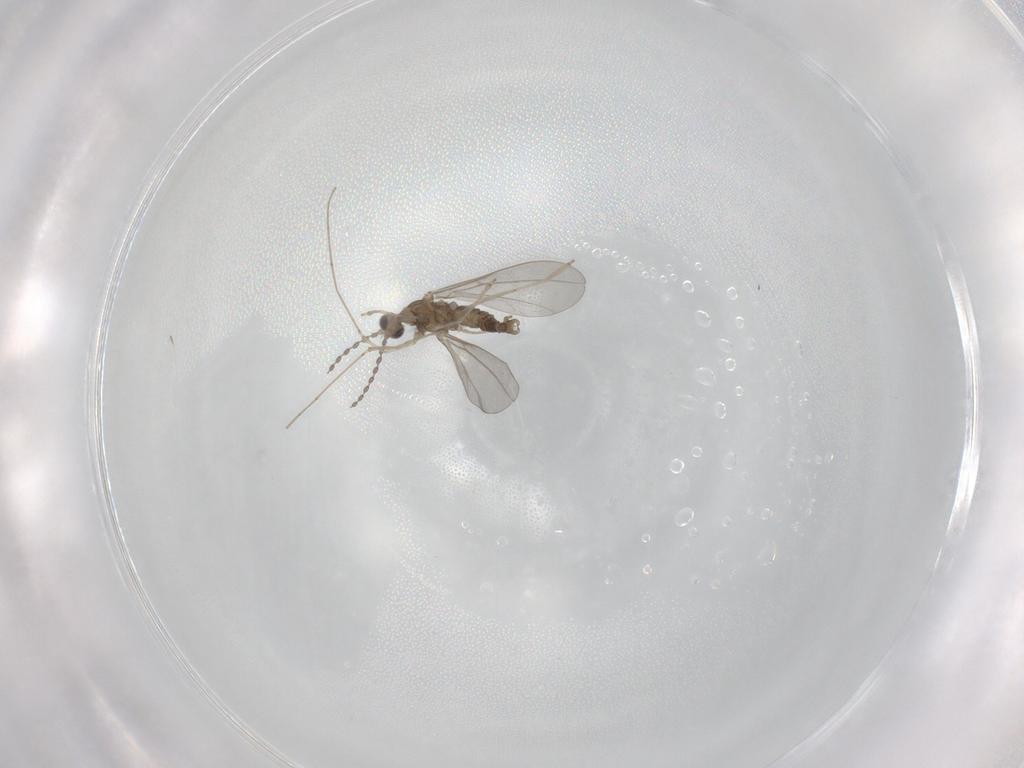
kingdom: Animalia
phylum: Arthropoda
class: Insecta
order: Diptera
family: Cecidomyiidae
